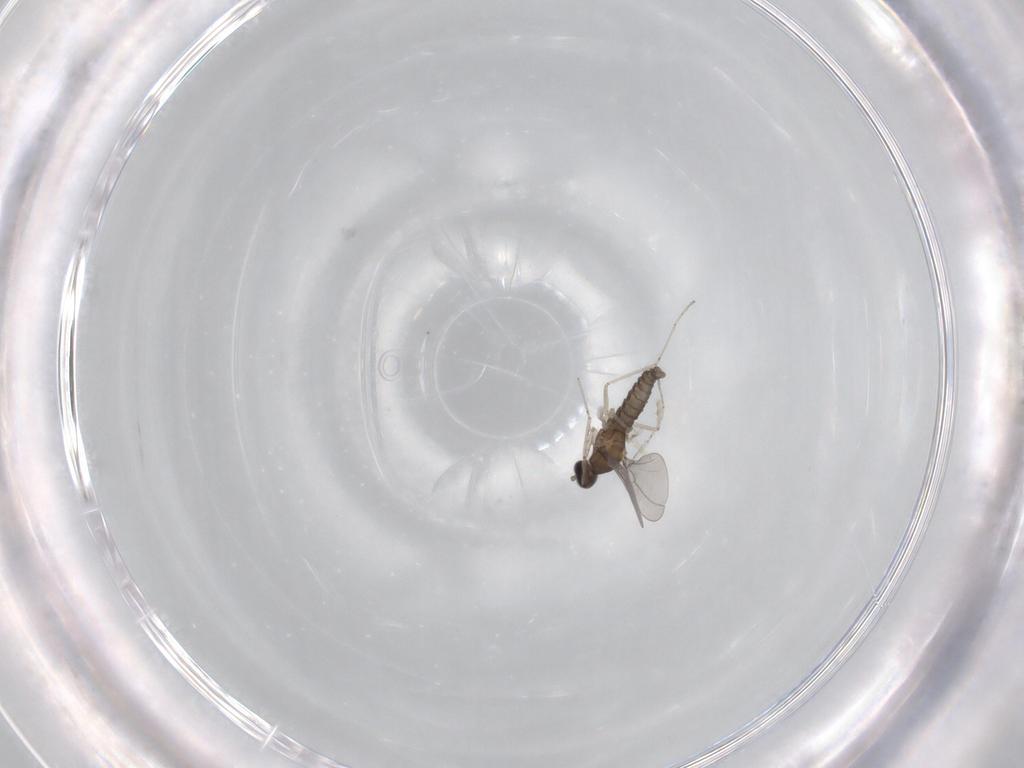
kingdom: Animalia
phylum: Arthropoda
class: Insecta
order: Diptera
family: Cecidomyiidae
